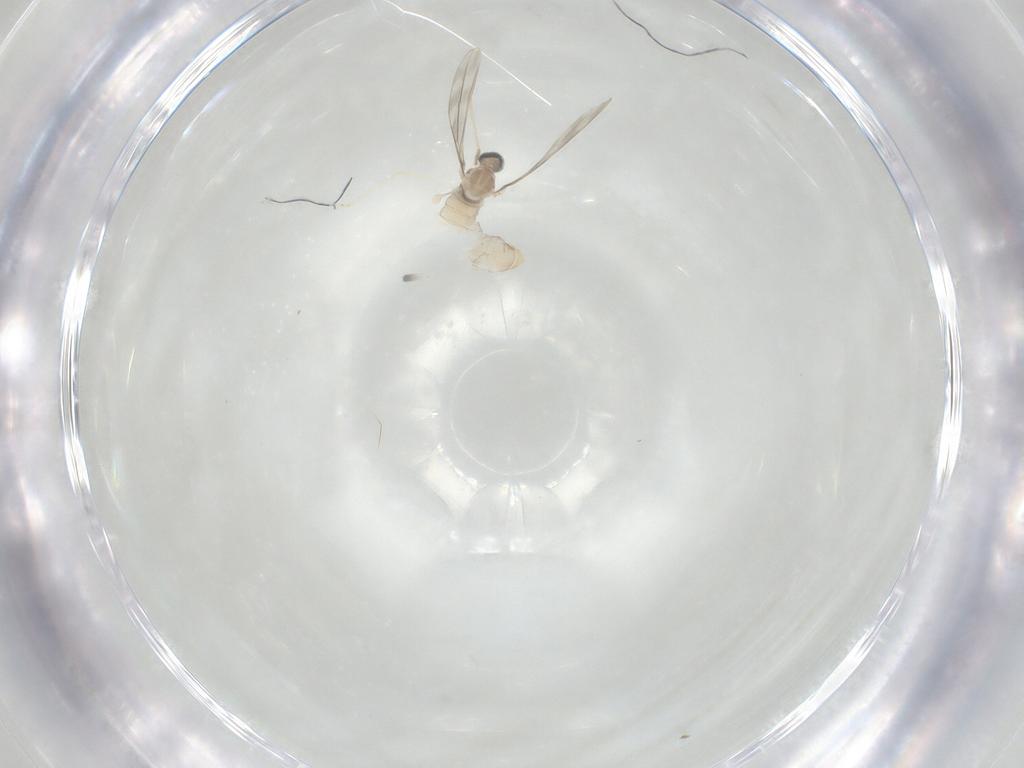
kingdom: Animalia
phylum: Arthropoda
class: Insecta
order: Diptera
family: Cecidomyiidae
